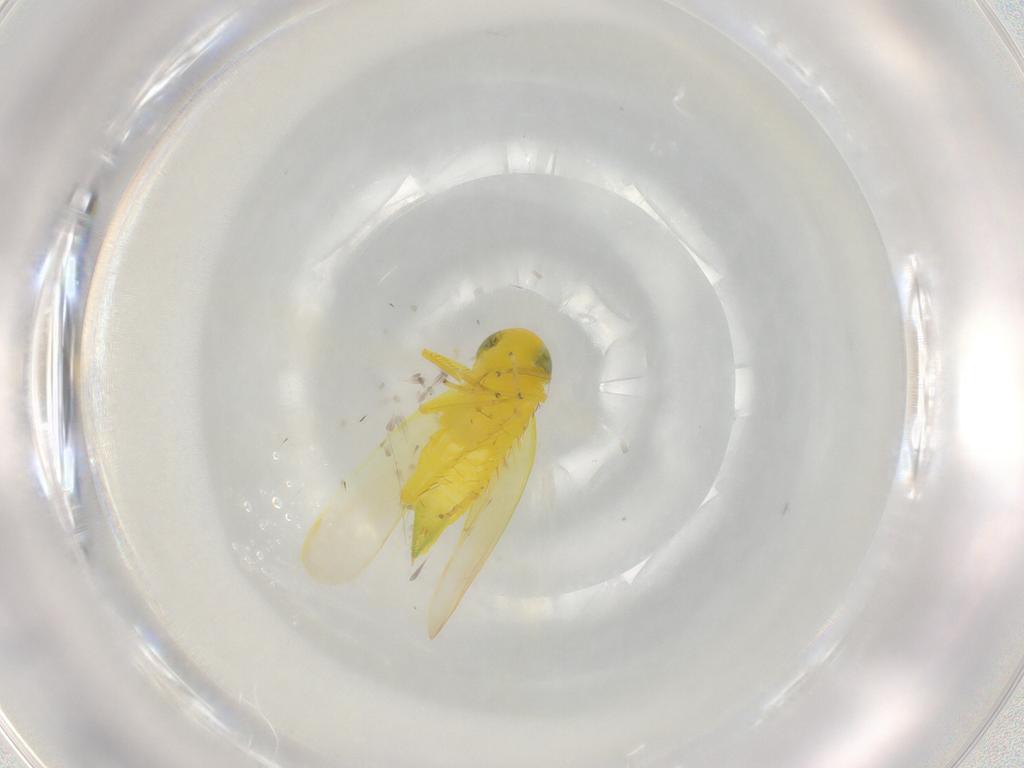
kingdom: Animalia
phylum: Arthropoda
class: Insecta
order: Hemiptera
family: Cicadellidae
